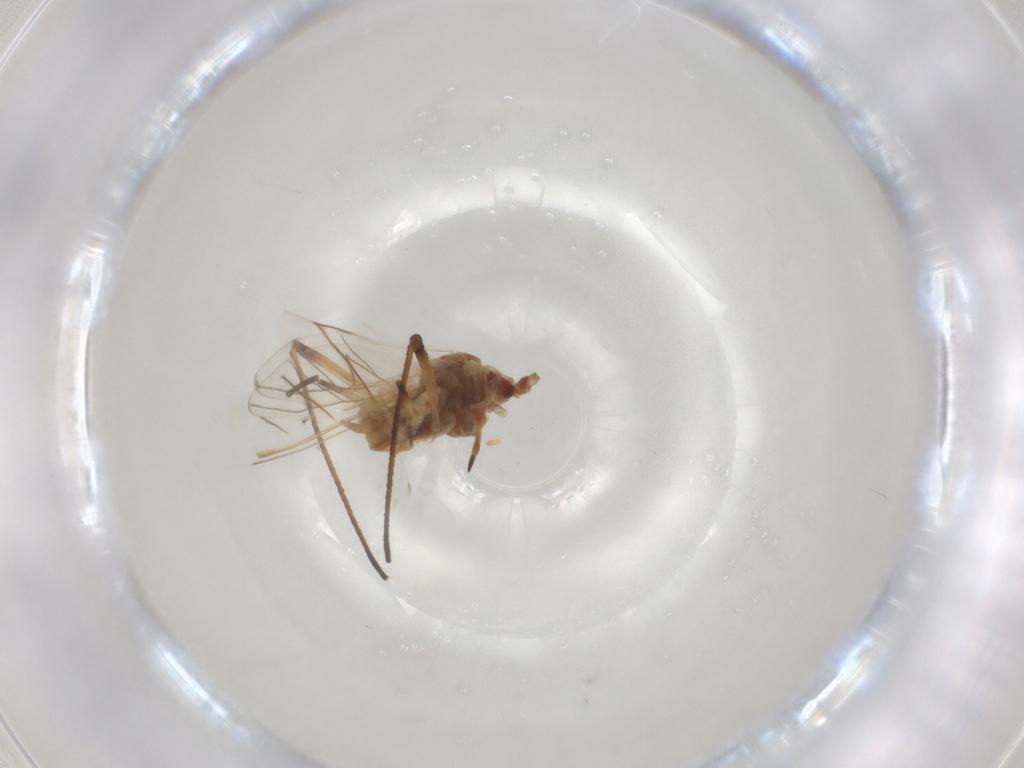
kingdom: Animalia
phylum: Arthropoda
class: Insecta
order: Hemiptera
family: Aphididae
